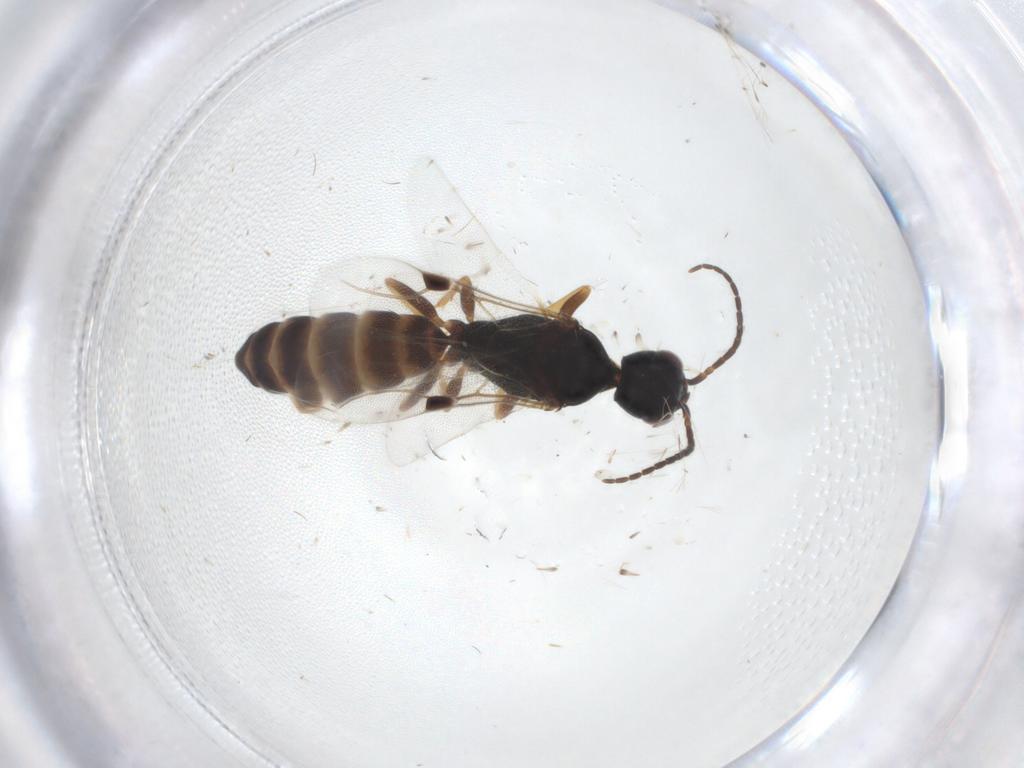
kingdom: Animalia
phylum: Arthropoda
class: Insecta
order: Hymenoptera
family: Bethylidae
